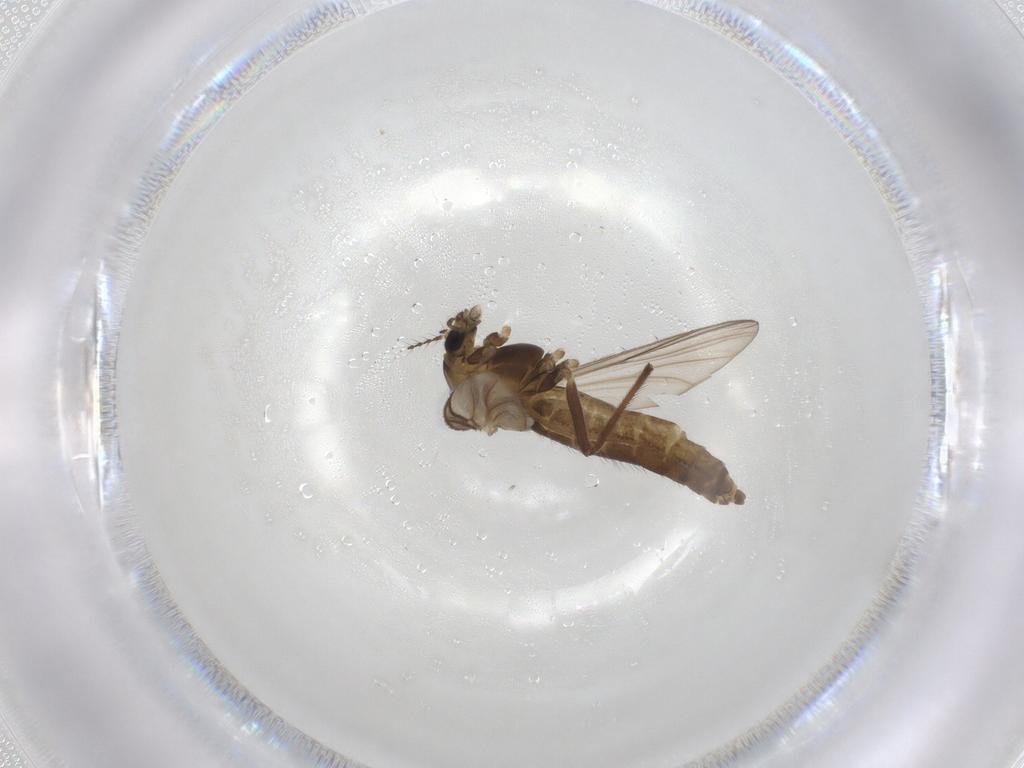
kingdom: Animalia
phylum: Arthropoda
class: Insecta
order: Diptera
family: Chironomidae
